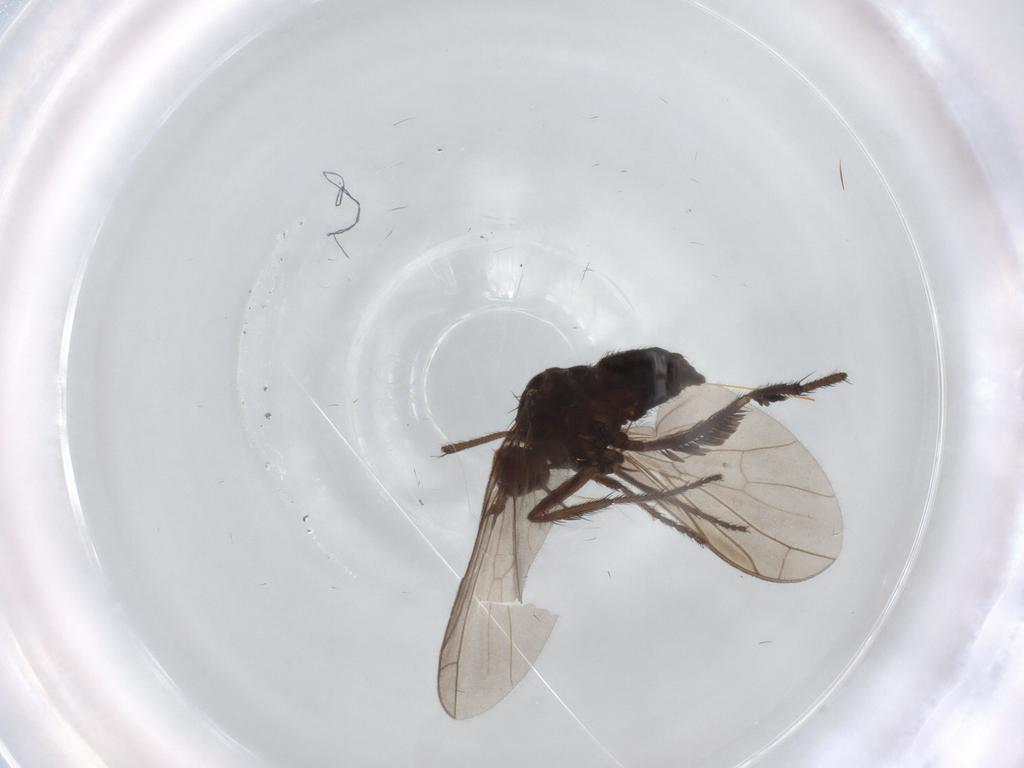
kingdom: Animalia
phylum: Arthropoda
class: Insecta
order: Diptera
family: Empididae
